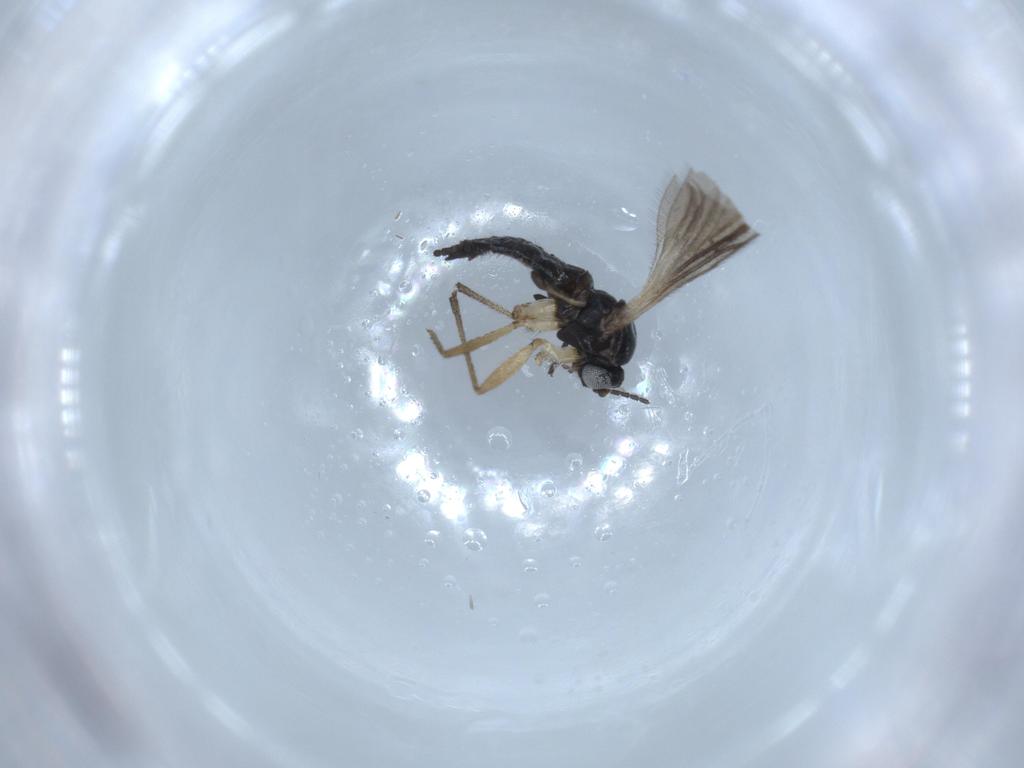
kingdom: Animalia
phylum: Arthropoda
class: Insecta
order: Diptera
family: Sciaridae
